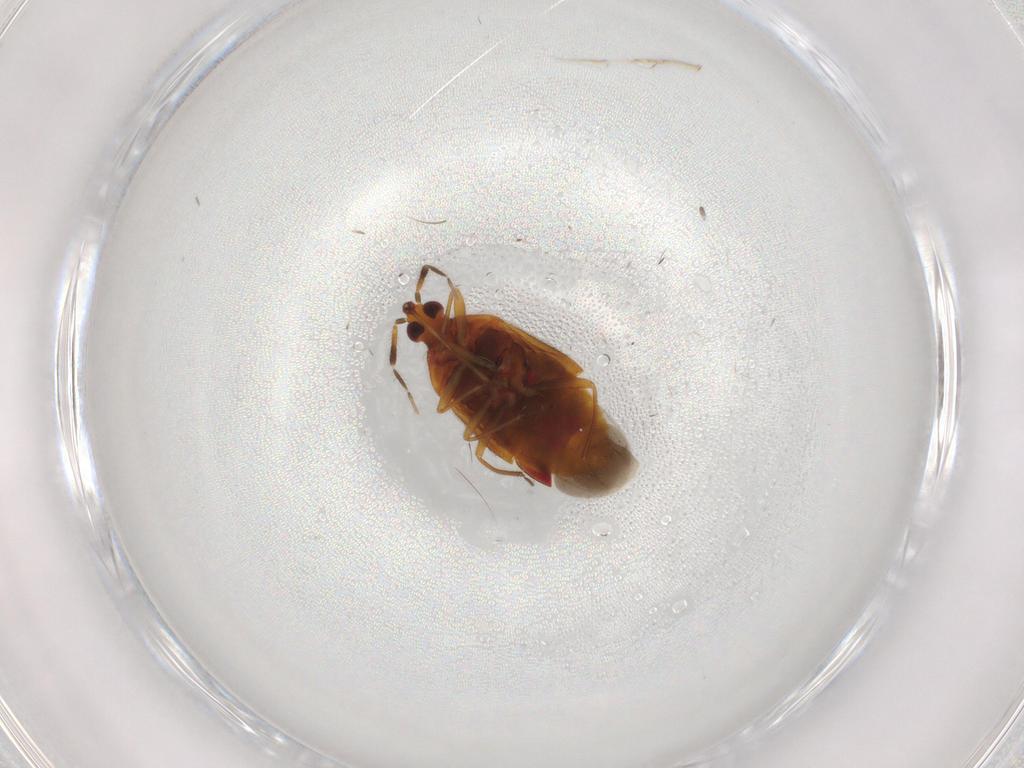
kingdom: Animalia
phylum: Arthropoda
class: Insecta
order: Hemiptera
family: Anthocoridae
